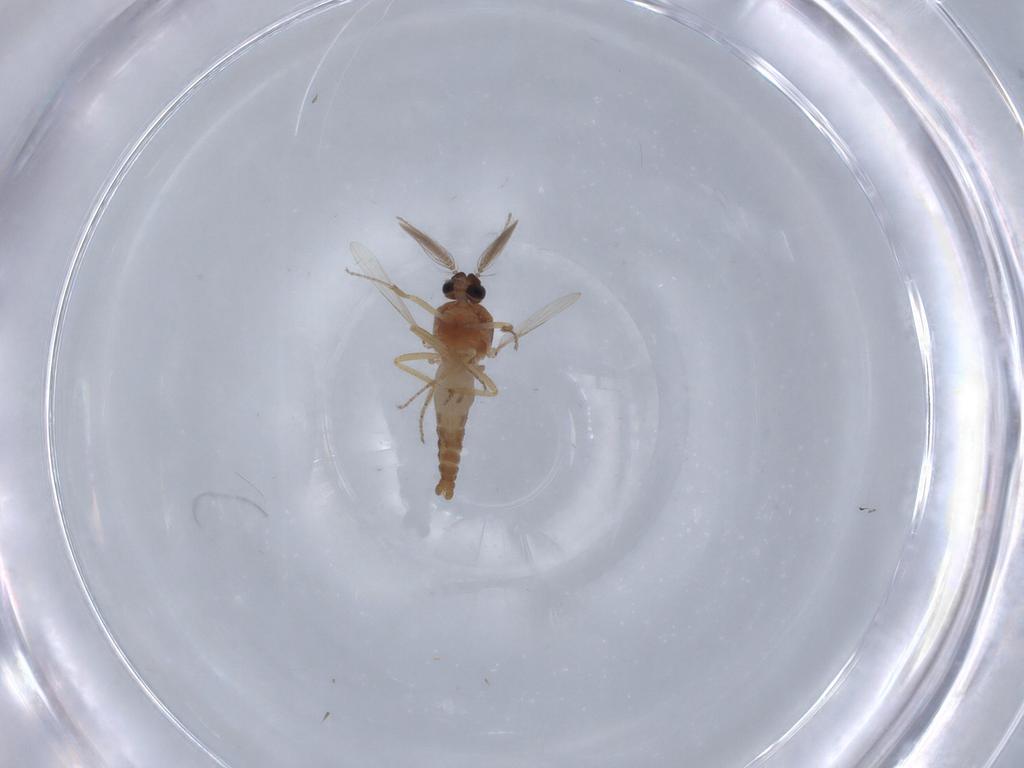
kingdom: Animalia
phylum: Arthropoda
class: Insecta
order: Diptera
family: Ceratopogonidae
